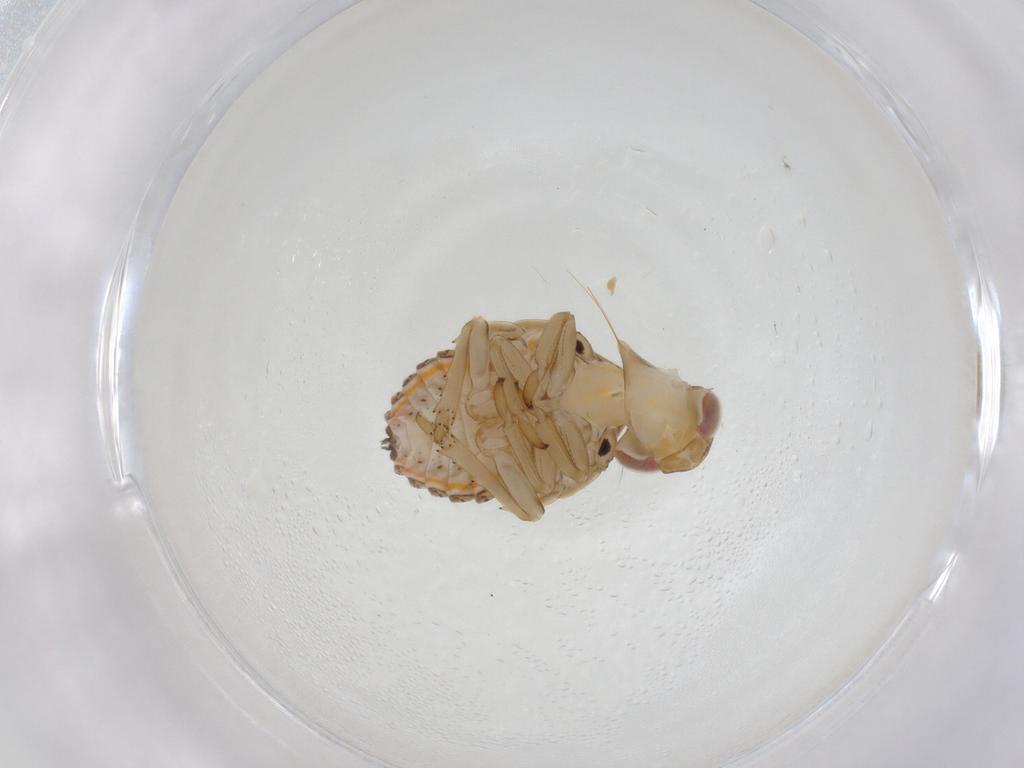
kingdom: Animalia
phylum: Arthropoda
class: Insecta
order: Hemiptera
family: Issidae
